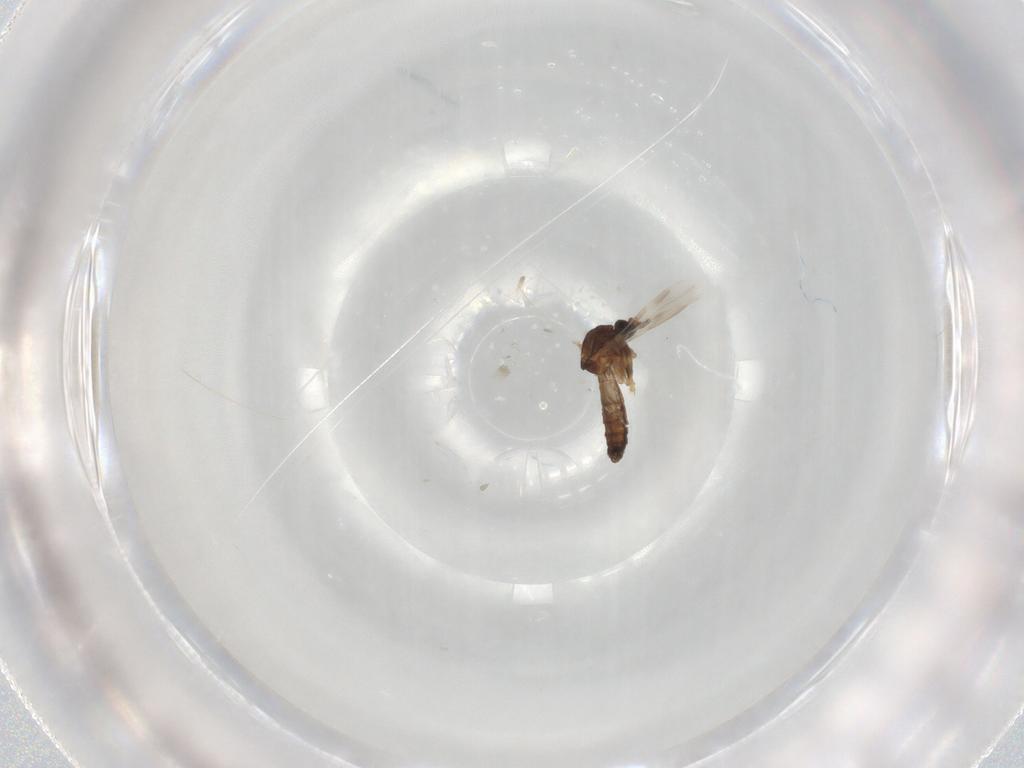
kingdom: Animalia
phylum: Arthropoda
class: Insecta
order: Diptera
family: Ceratopogonidae
